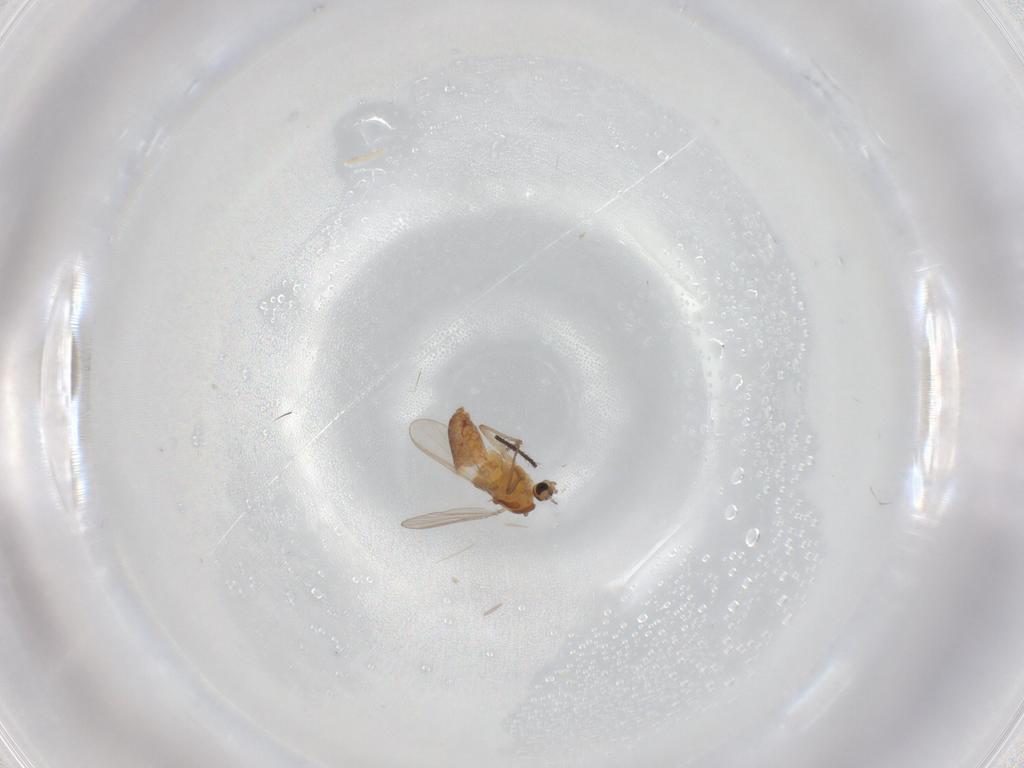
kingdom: Animalia
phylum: Arthropoda
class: Insecta
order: Diptera
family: Chironomidae
